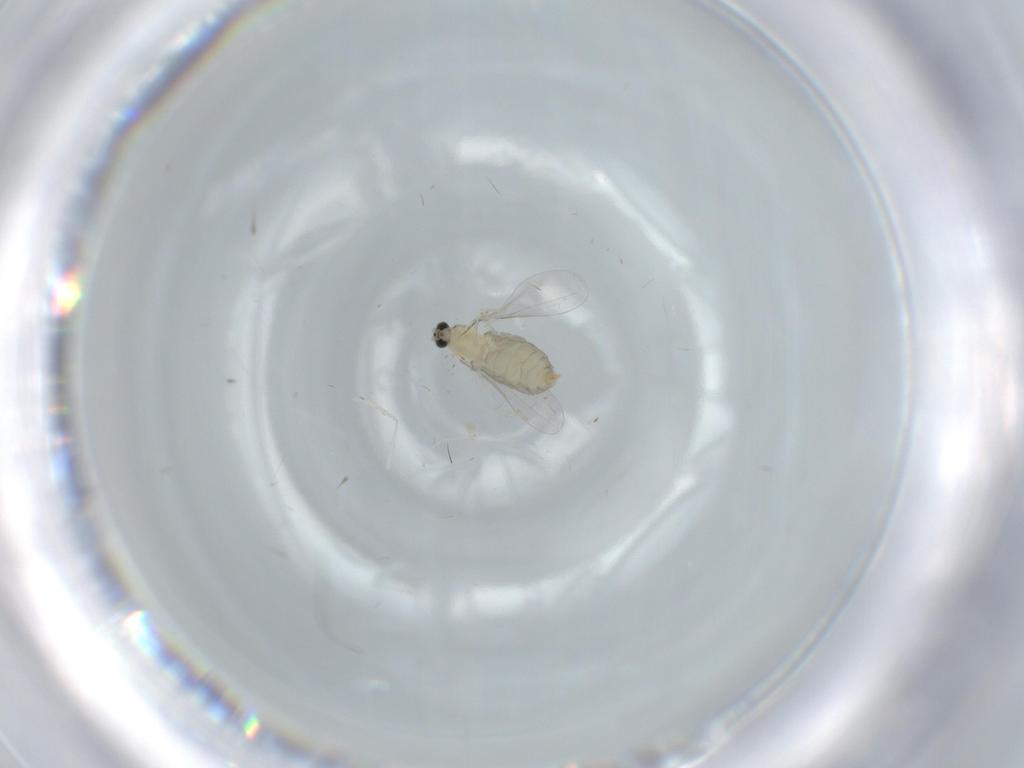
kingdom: Animalia
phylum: Arthropoda
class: Insecta
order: Diptera
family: Therevidae
